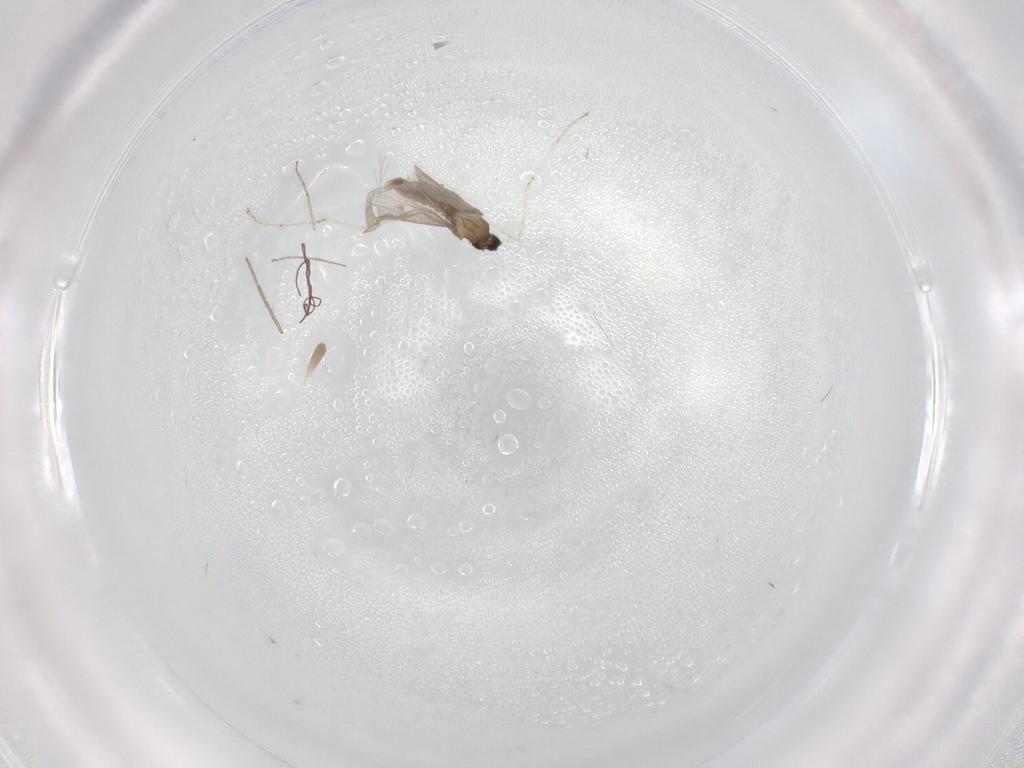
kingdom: Animalia
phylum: Arthropoda
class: Insecta
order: Diptera
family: Cecidomyiidae
